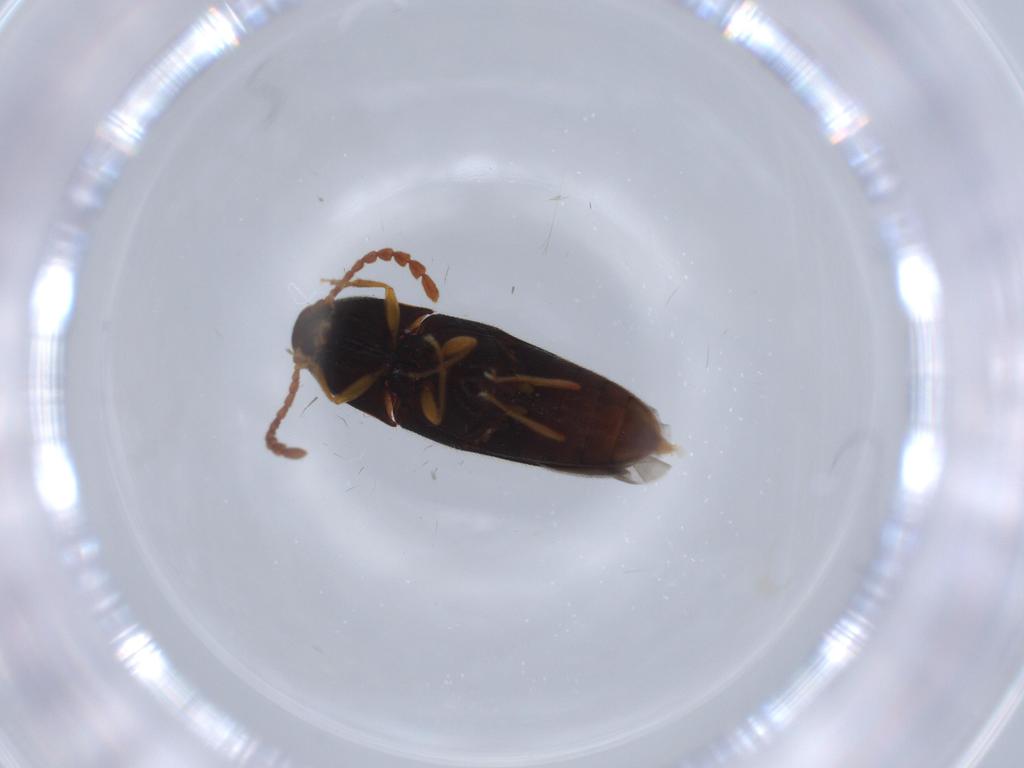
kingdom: Animalia
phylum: Arthropoda
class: Insecta
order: Coleoptera
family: Elateridae
